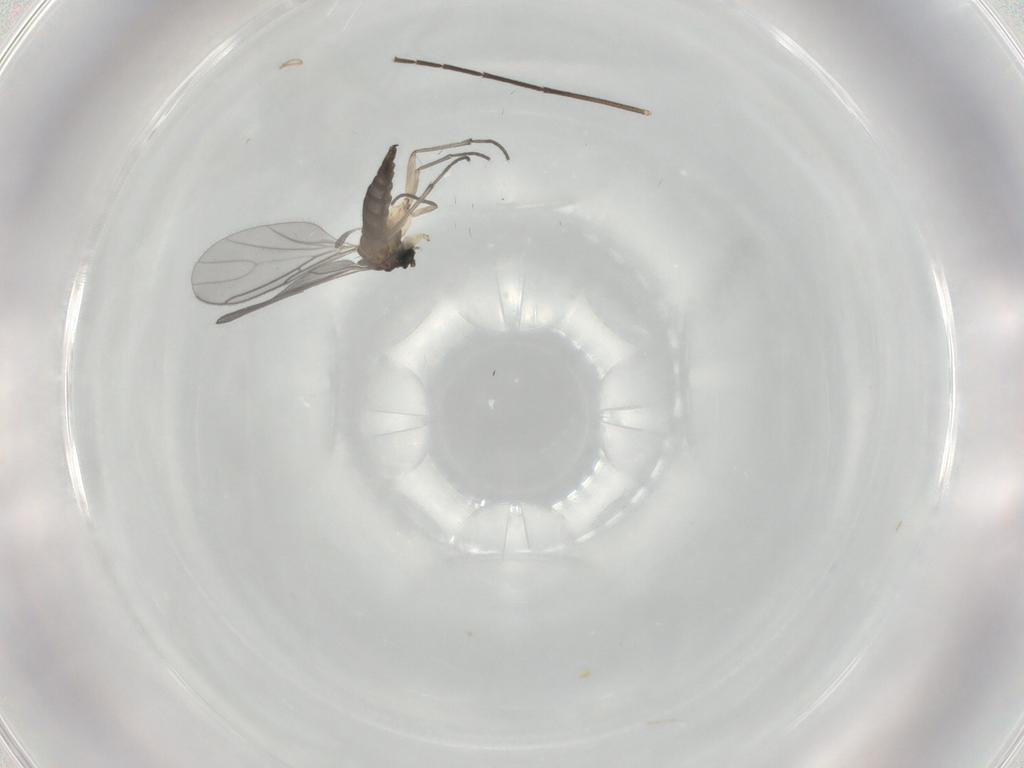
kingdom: Animalia
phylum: Arthropoda
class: Insecta
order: Diptera
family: Sciaridae
